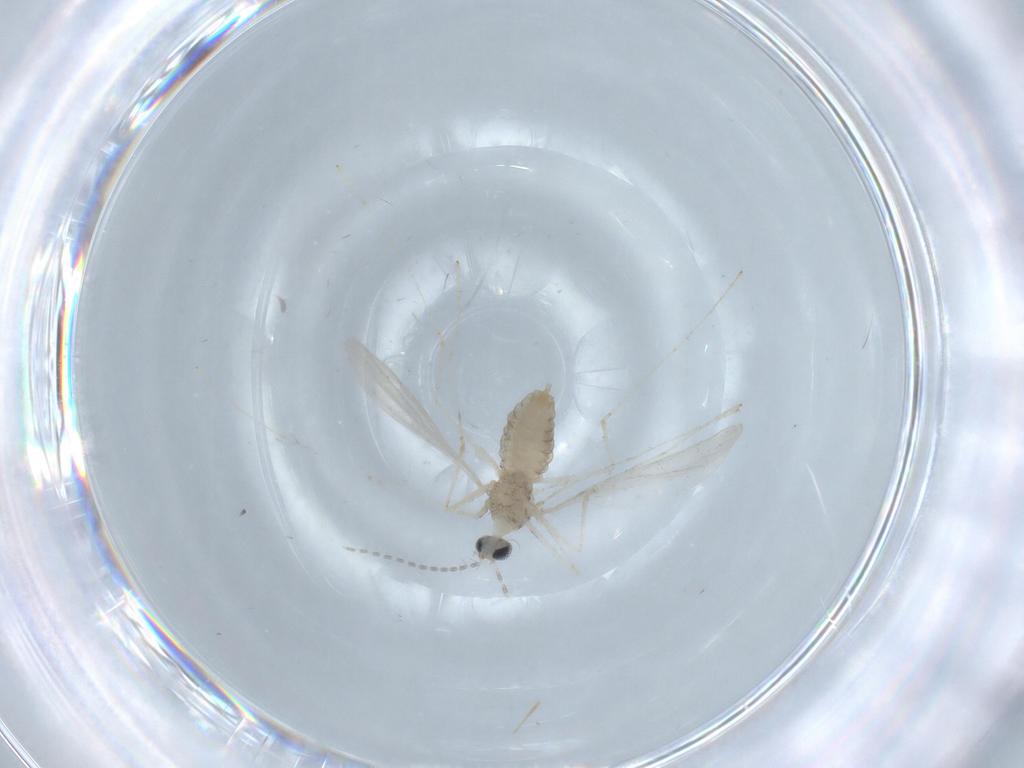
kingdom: Animalia
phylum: Arthropoda
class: Insecta
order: Diptera
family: Cecidomyiidae
